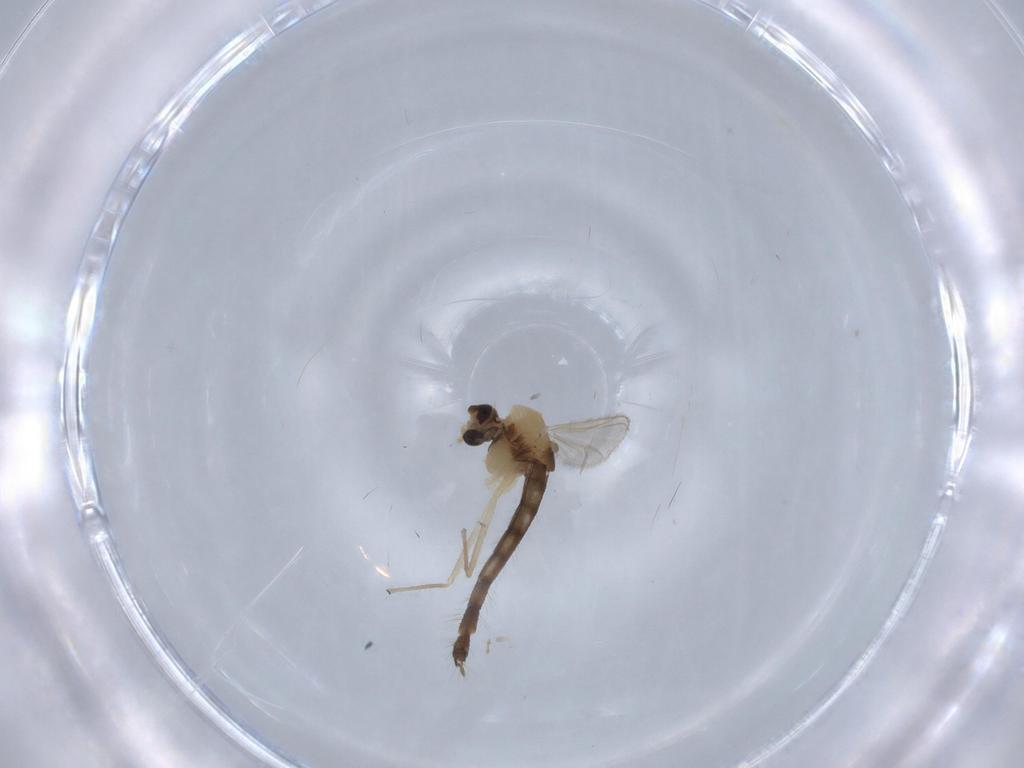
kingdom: Animalia
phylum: Arthropoda
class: Insecta
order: Diptera
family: Chironomidae
